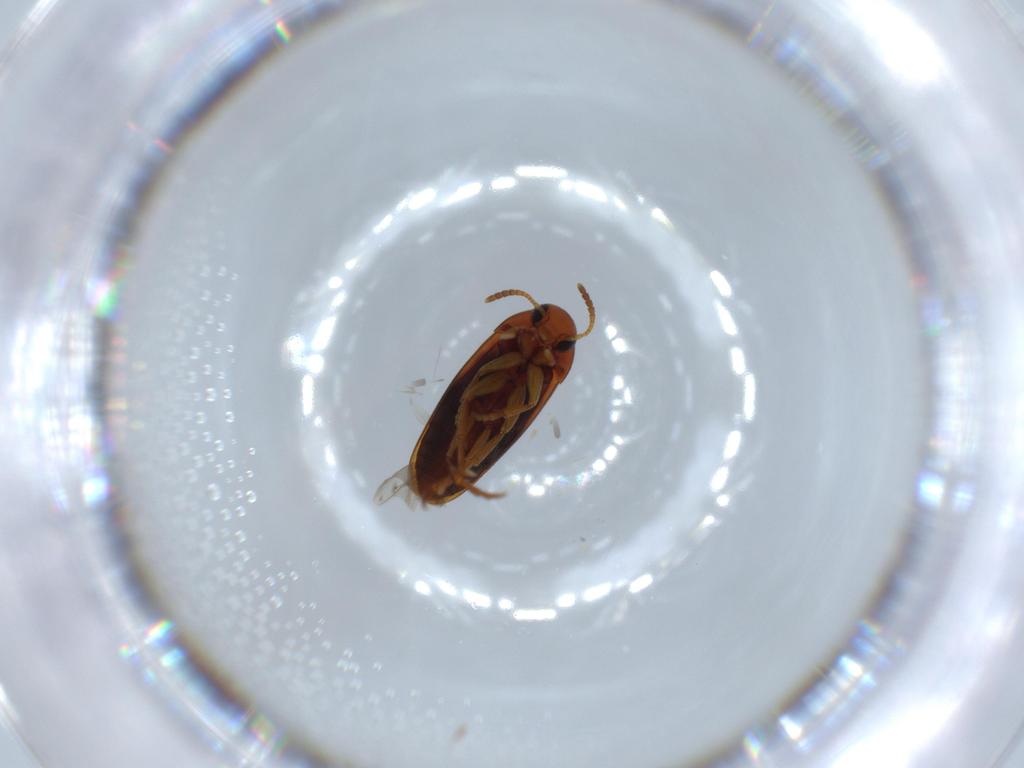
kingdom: Animalia
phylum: Arthropoda
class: Insecta
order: Coleoptera
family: Scraptiidae
